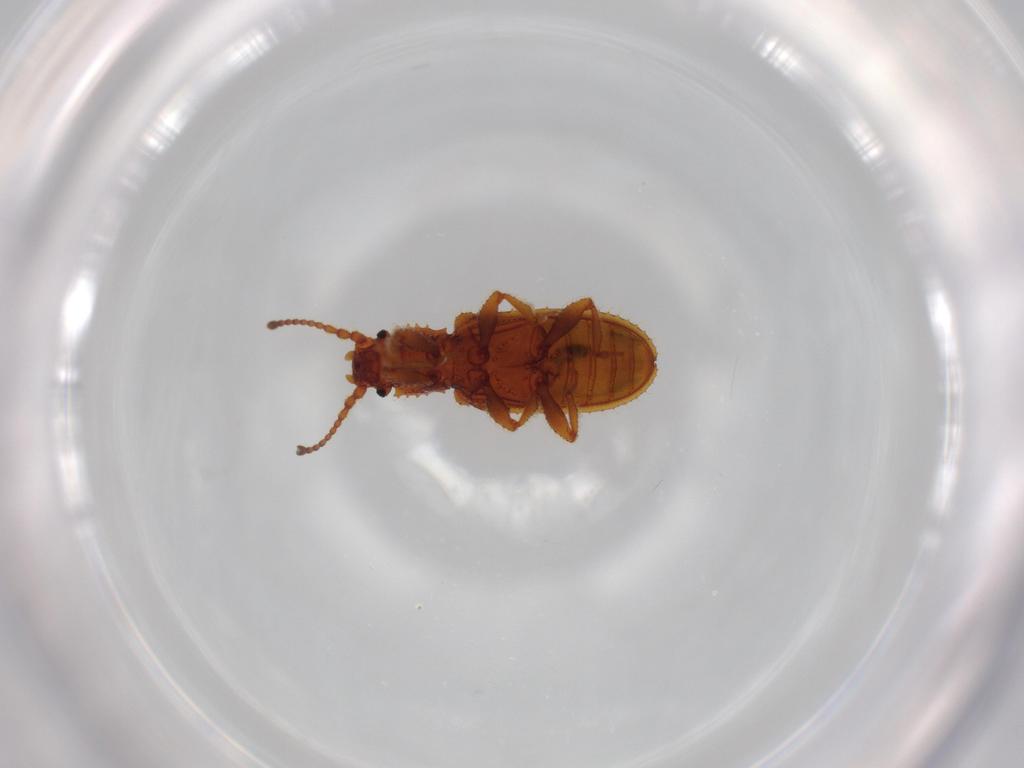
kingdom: Animalia
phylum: Arthropoda
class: Insecta
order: Coleoptera
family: Zopheridae
